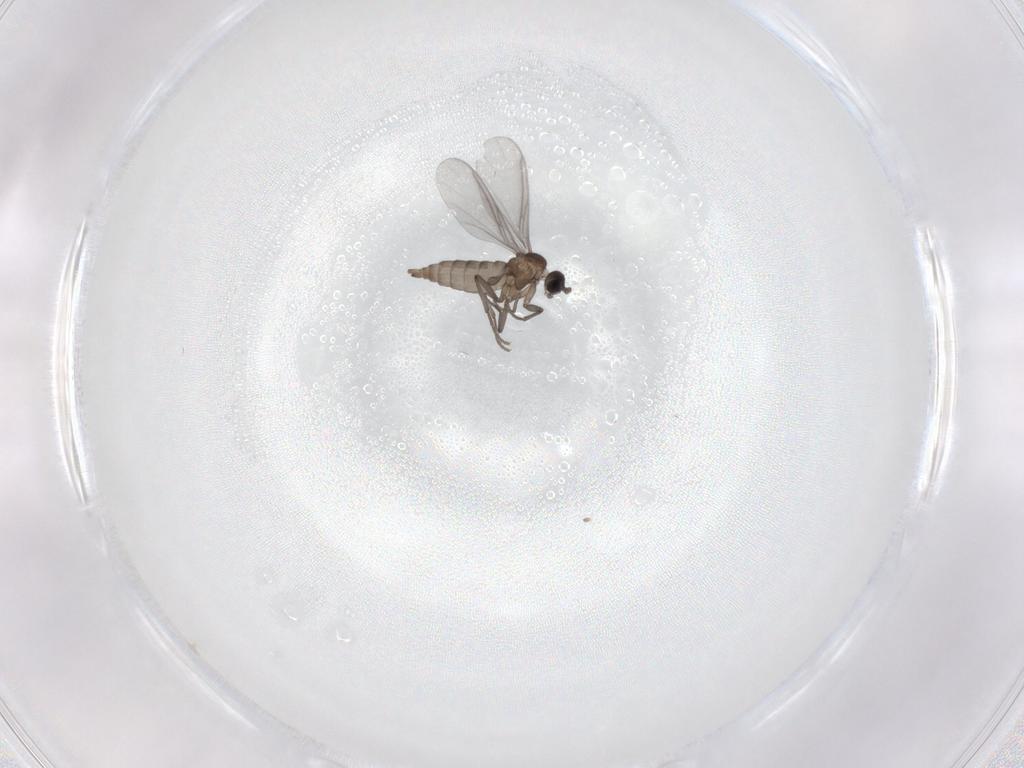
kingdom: Animalia
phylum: Arthropoda
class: Insecta
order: Diptera
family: Sciaridae
